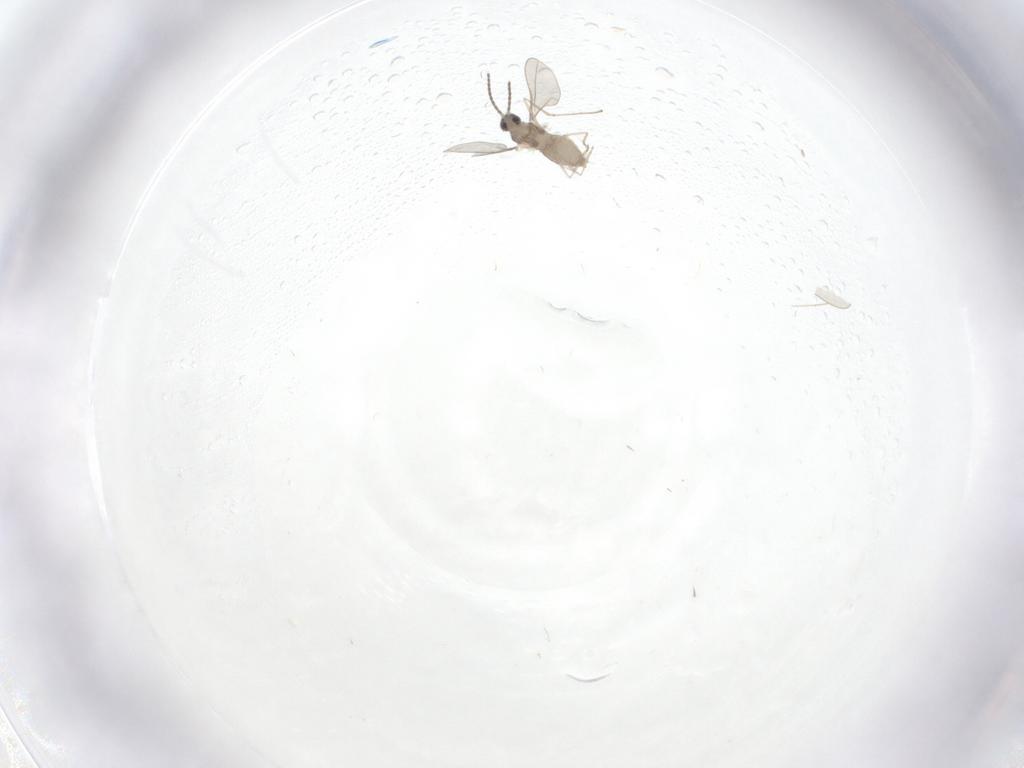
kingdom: Animalia
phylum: Arthropoda
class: Insecta
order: Diptera
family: Cecidomyiidae
